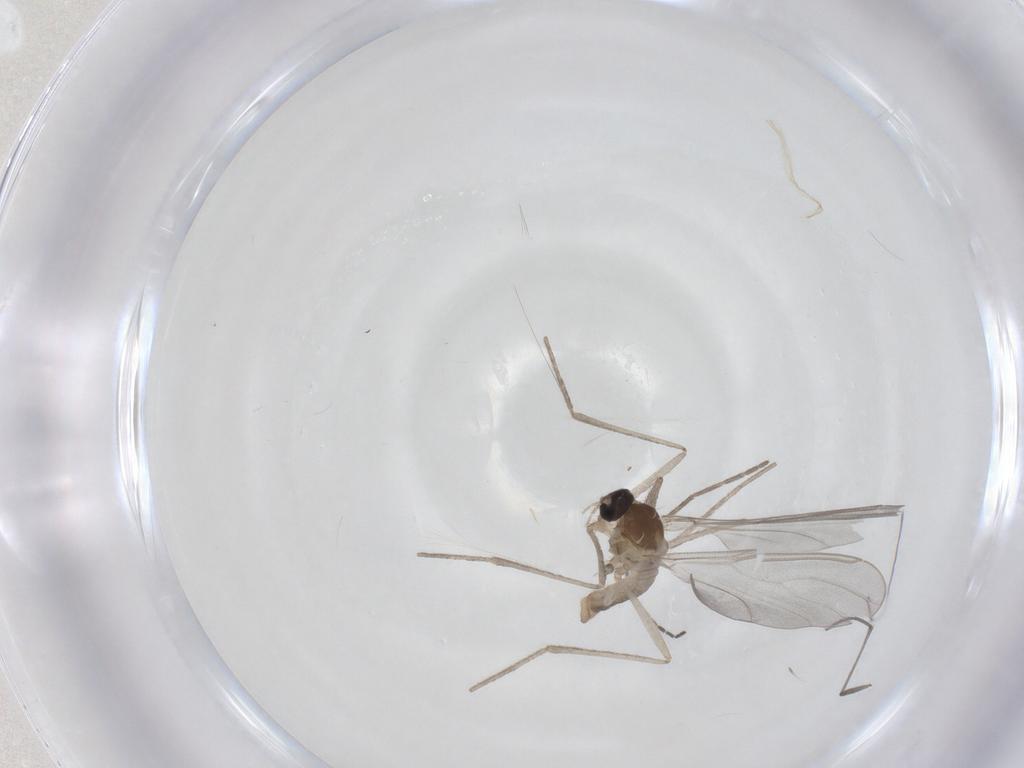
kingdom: Animalia
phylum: Arthropoda
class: Insecta
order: Diptera
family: Cecidomyiidae
